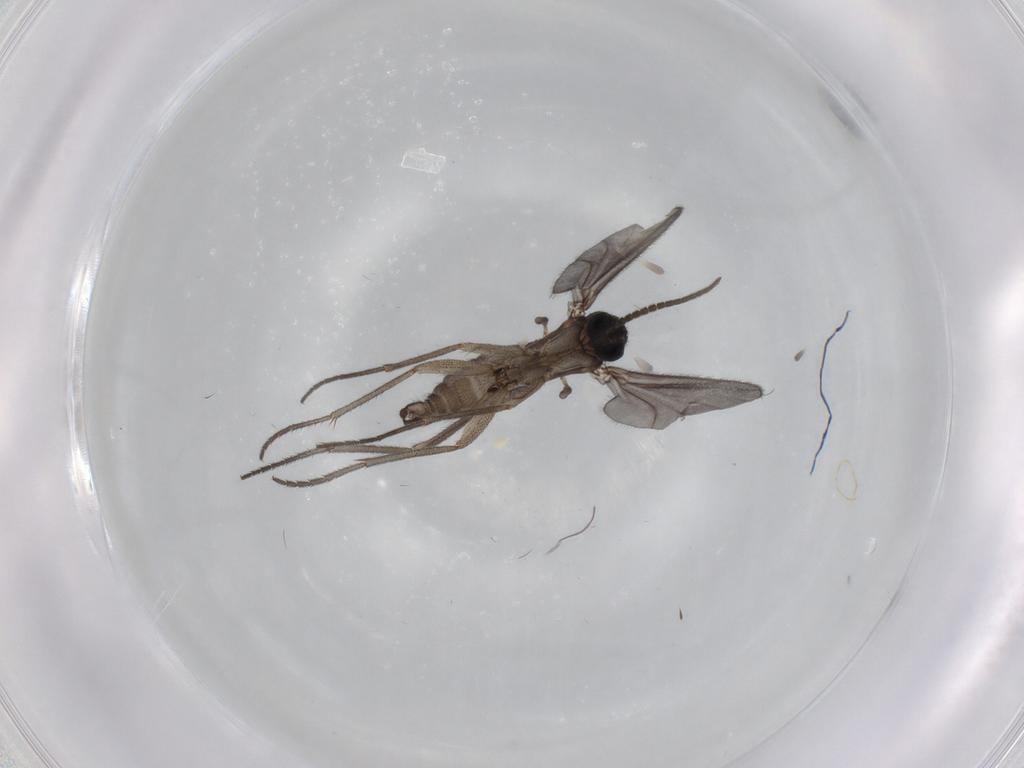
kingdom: Animalia
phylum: Arthropoda
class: Insecta
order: Diptera
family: Sciaridae
